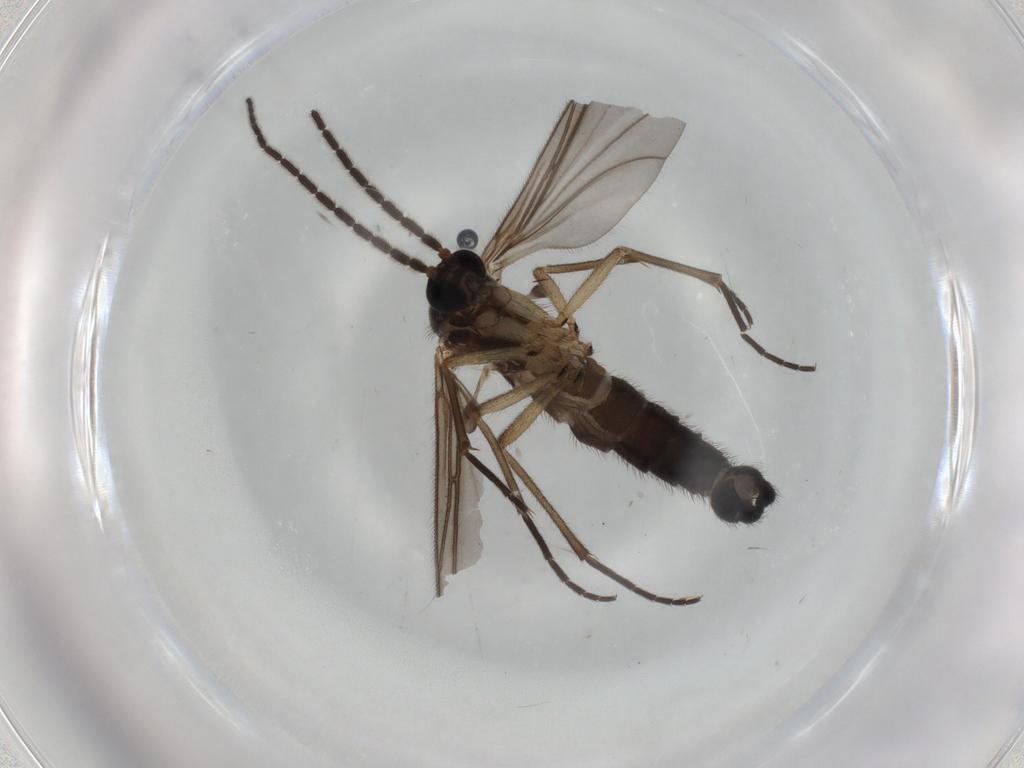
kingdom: Animalia
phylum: Arthropoda
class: Insecta
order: Diptera
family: Sciaridae
